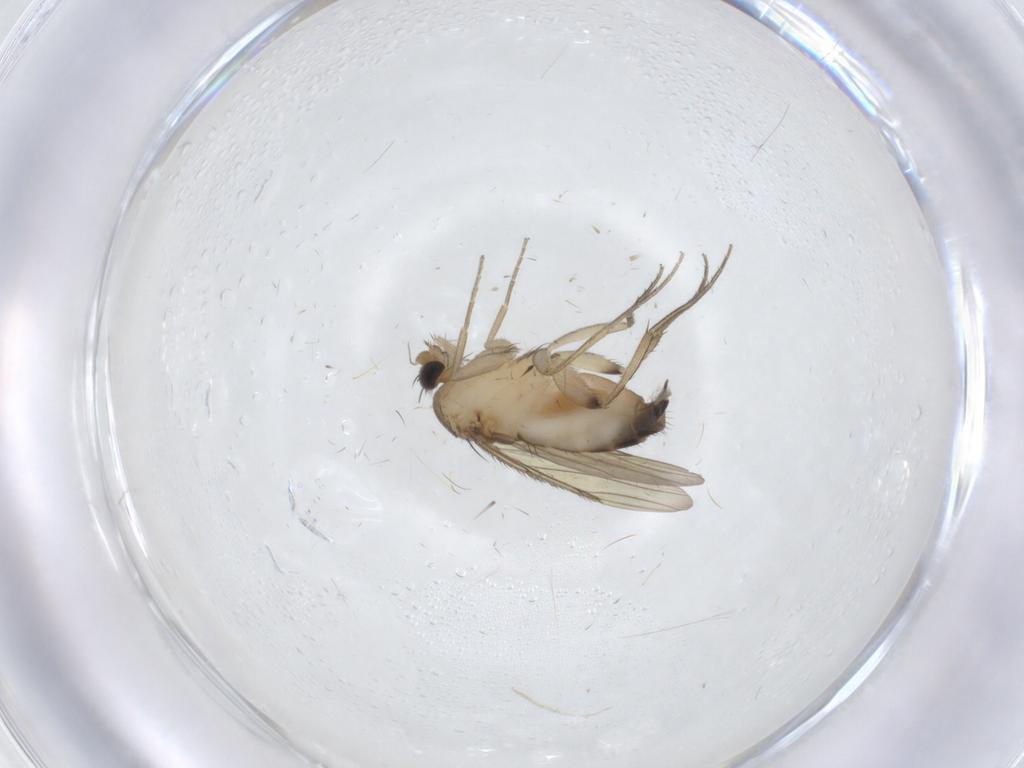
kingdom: Animalia
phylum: Arthropoda
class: Insecta
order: Diptera
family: Phoridae
